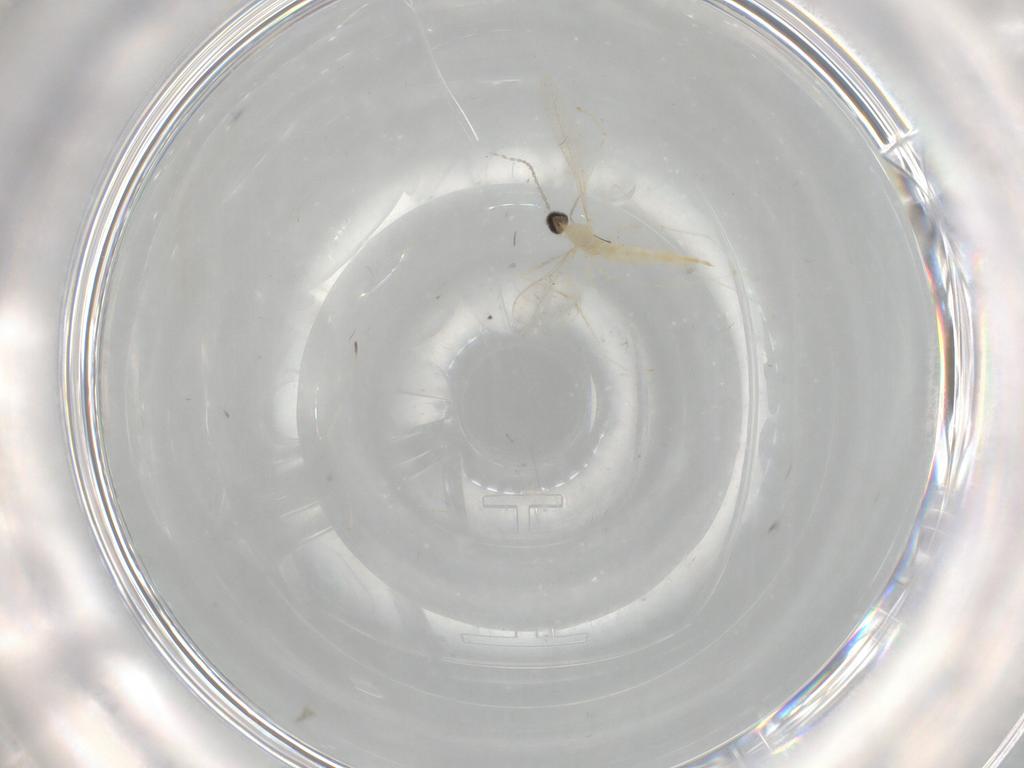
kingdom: Animalia
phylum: Arthropoda
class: Insecta
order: Diptera
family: Cecidomyiidae
